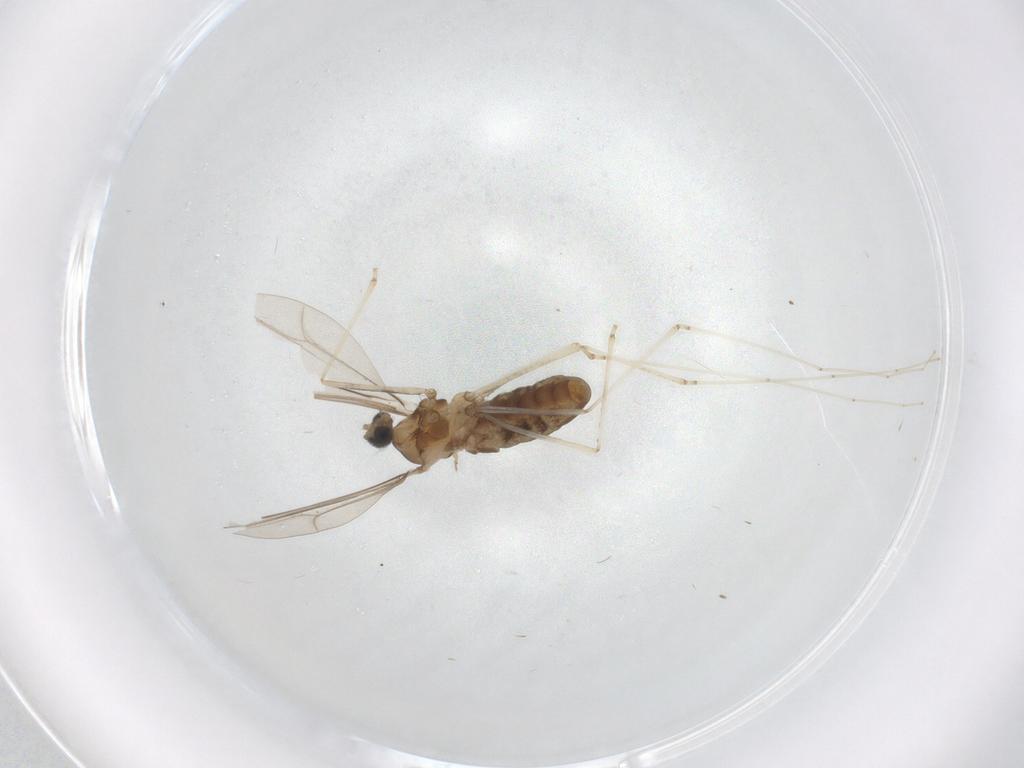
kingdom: Animalia
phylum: Arthropoda
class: Insecta
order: Diptera
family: Cecidomyiidae
